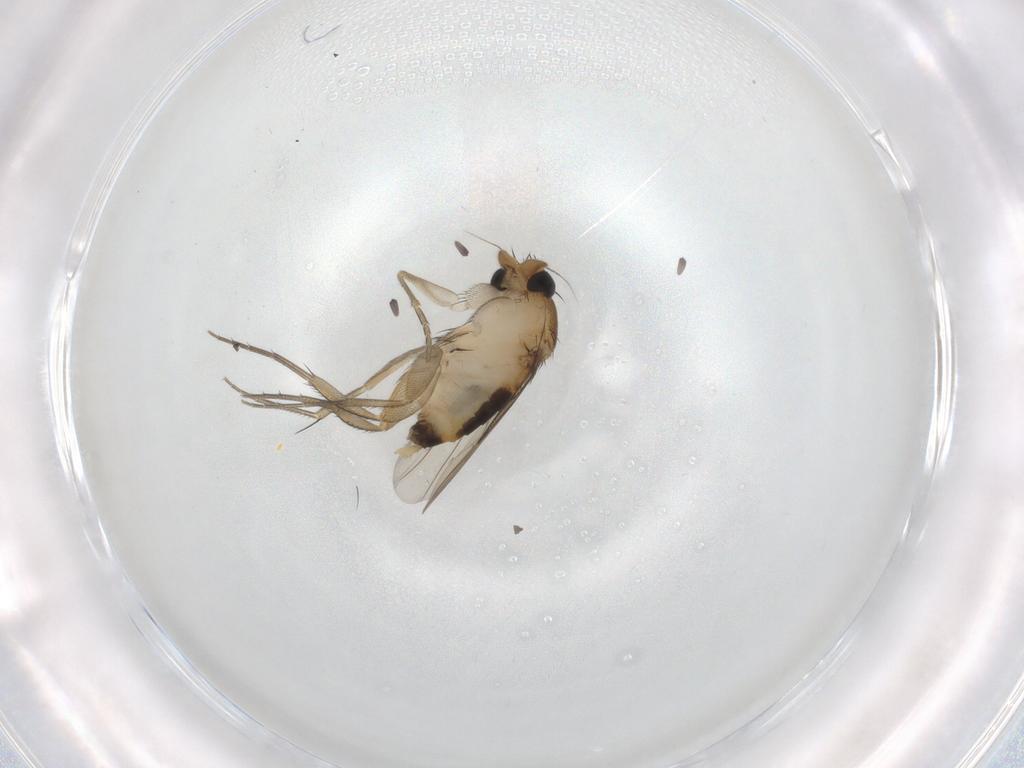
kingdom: Animalia
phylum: Arthropoda
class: Insecta
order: Diptera
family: Phoridae
